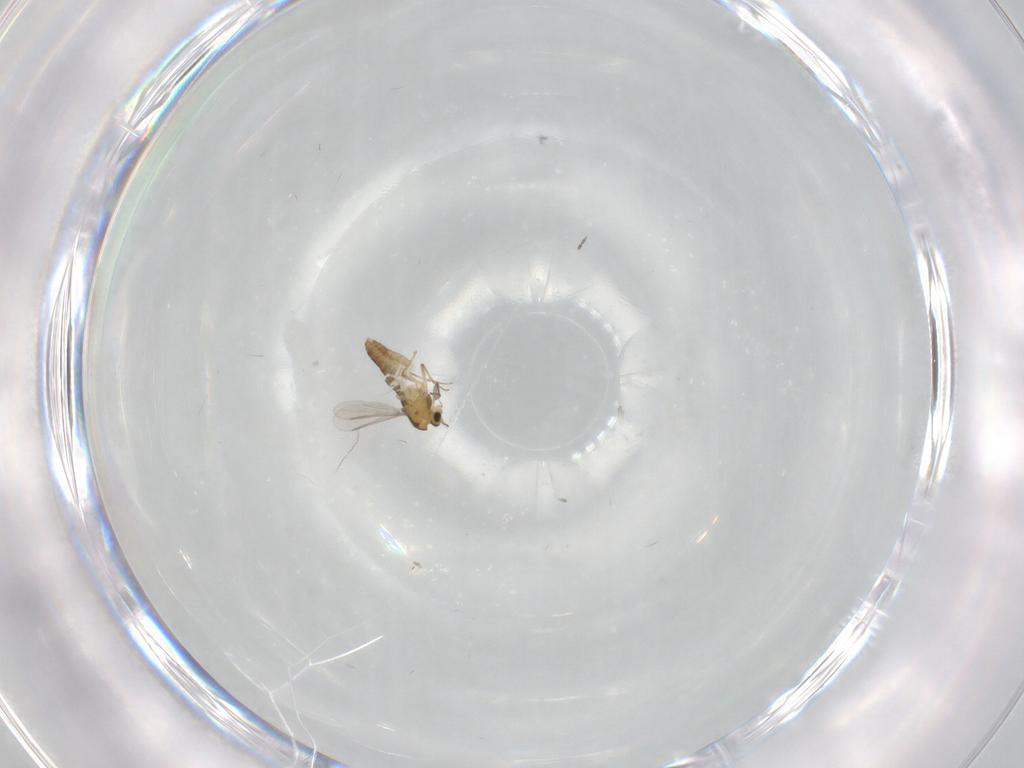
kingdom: Animalia
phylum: Arthropoda
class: Insecta
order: Diptera
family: Chironomidae
